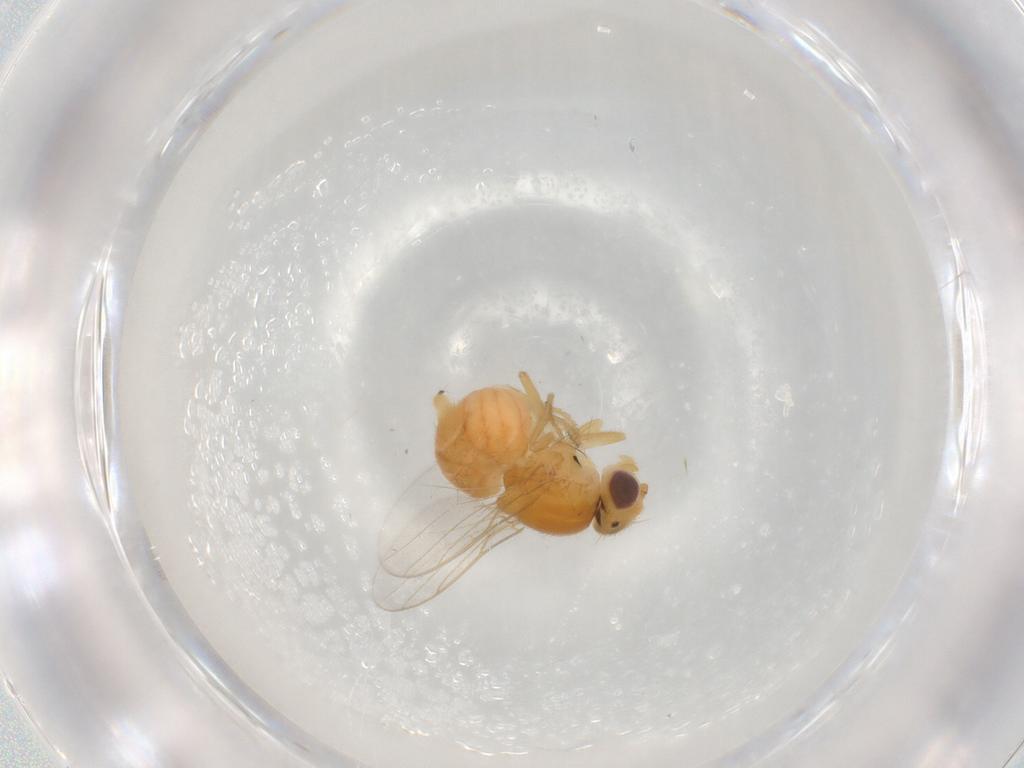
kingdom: Animalia
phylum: Arthropoda
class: Insecta
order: Diptera
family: Chloropidae
